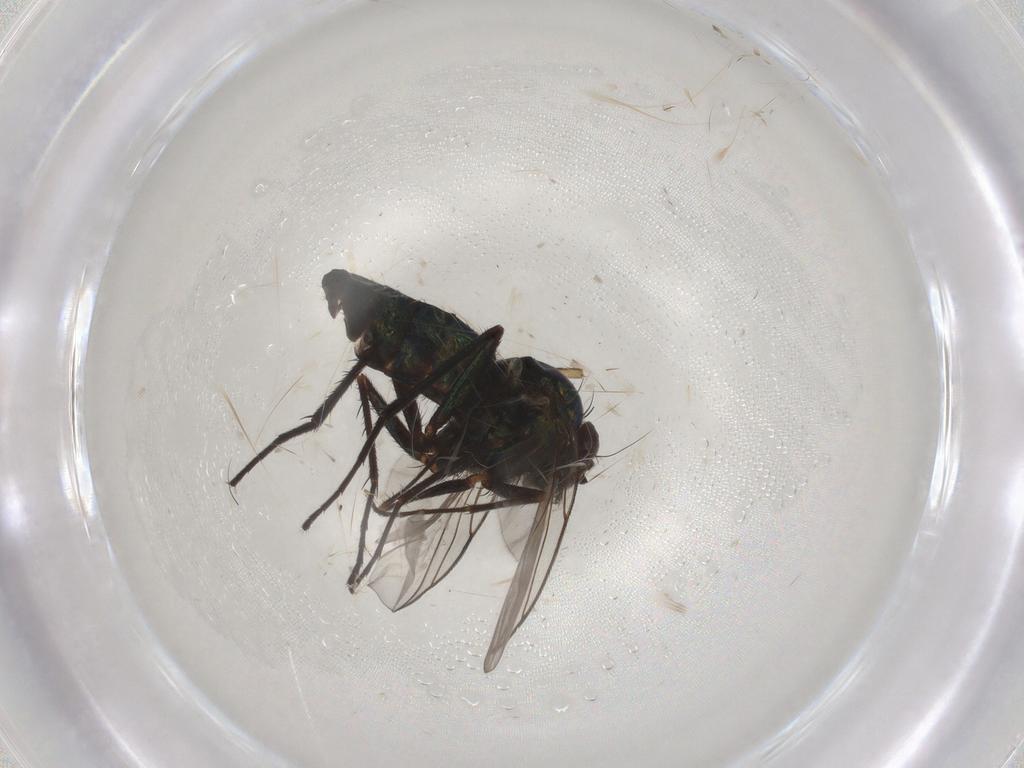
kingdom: Animalia
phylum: Arthropoda
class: Insecta
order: Diptera
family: Dolichopodidae
